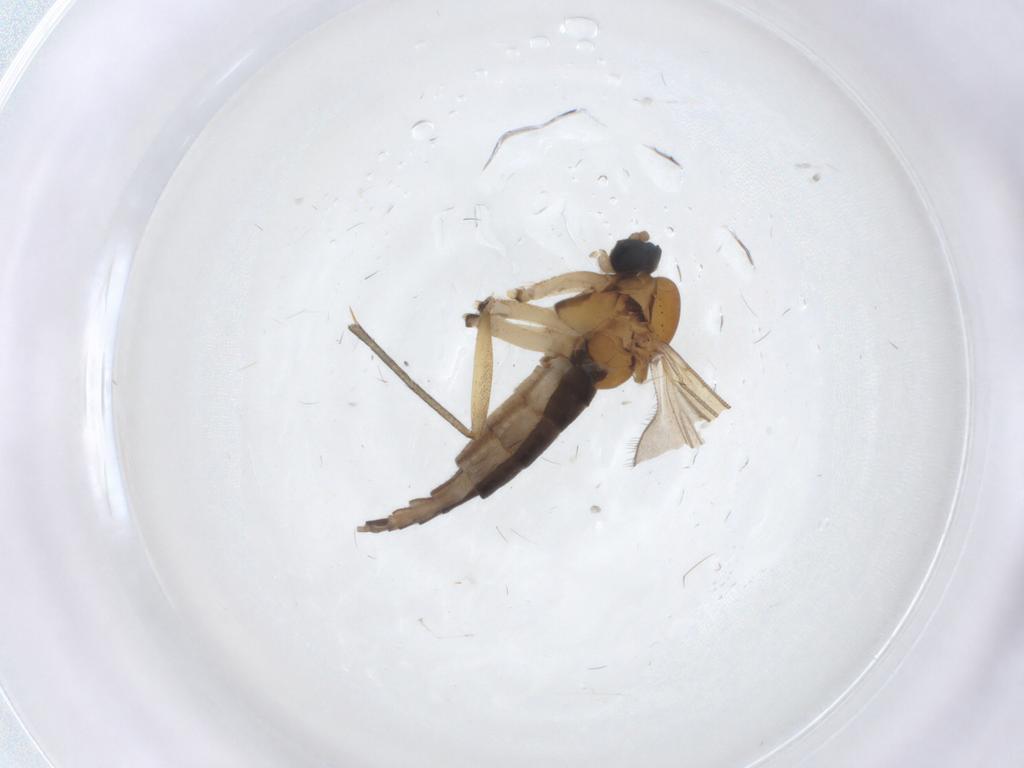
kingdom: Animalia
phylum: Arthropoda
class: Insecta
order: Diptera
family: Sciaridae
